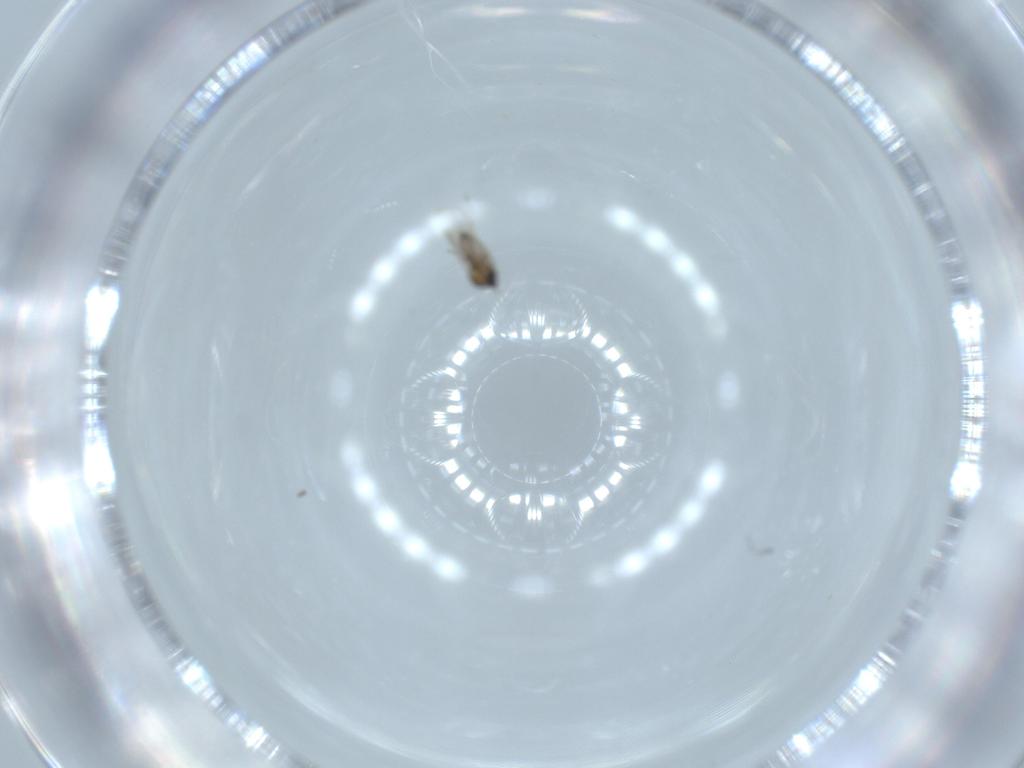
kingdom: Animalia
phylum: Arthropoda
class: Insecta
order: Diptera
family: Cecidomyiidae
